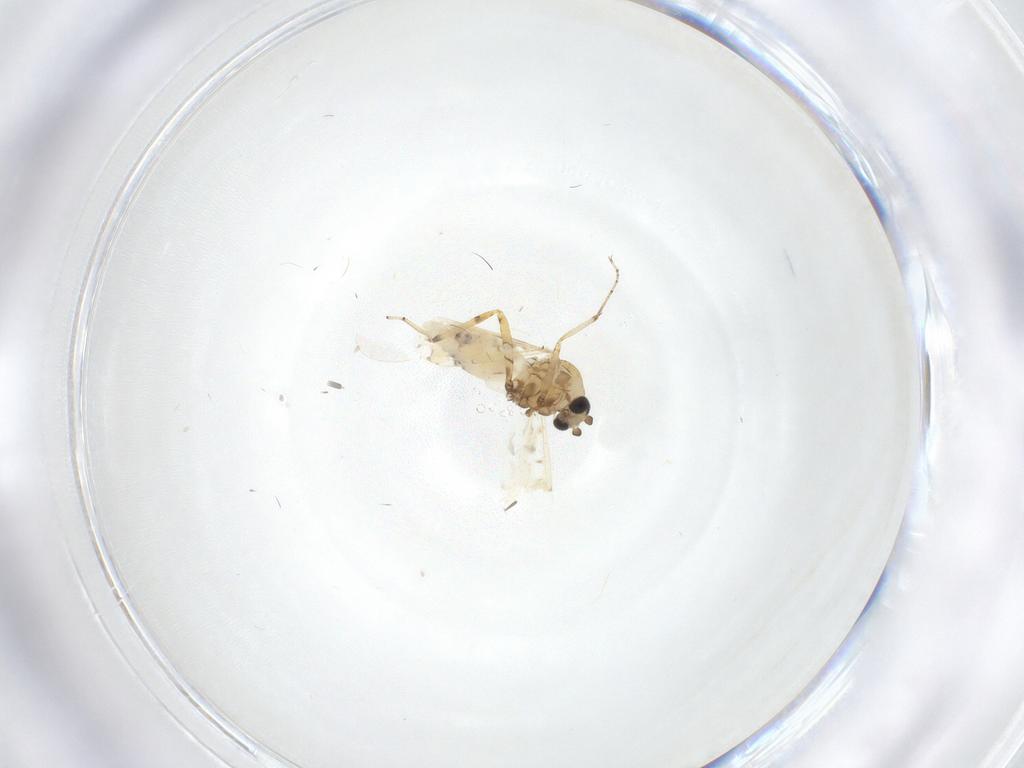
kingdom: Animalia
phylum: Arthropoda
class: Insecta
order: Diptera
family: Ceratopogonidae
